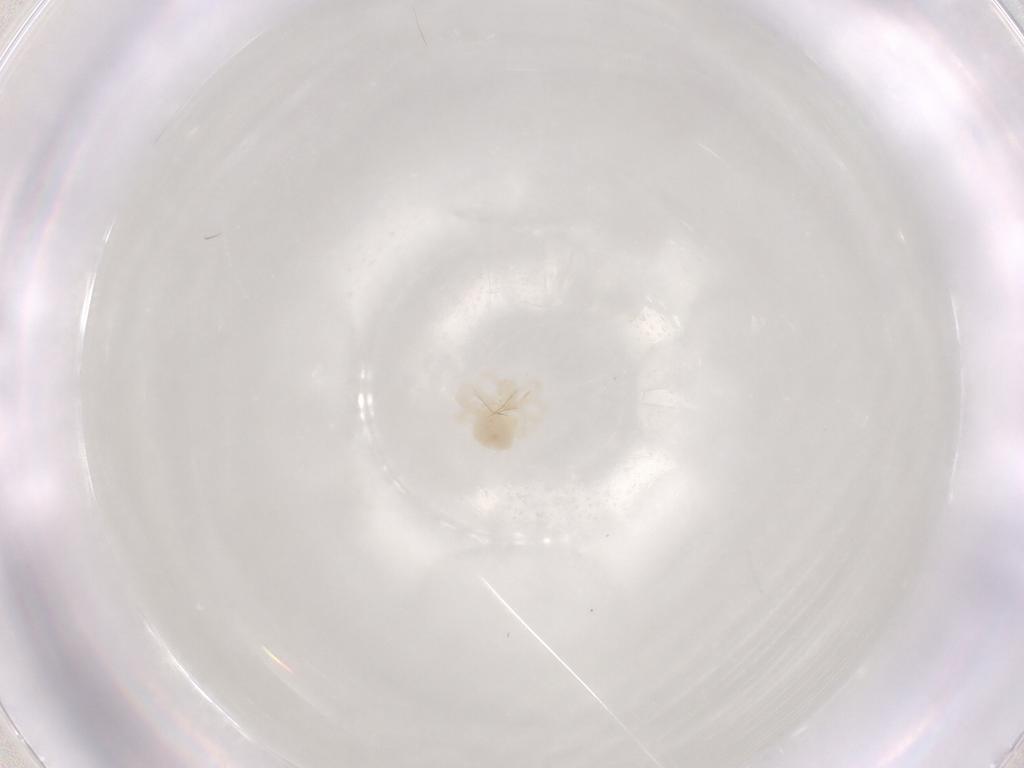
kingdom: Animalia
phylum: Arthropoda
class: Arachnida
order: Trombidiformes
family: Anystidae
